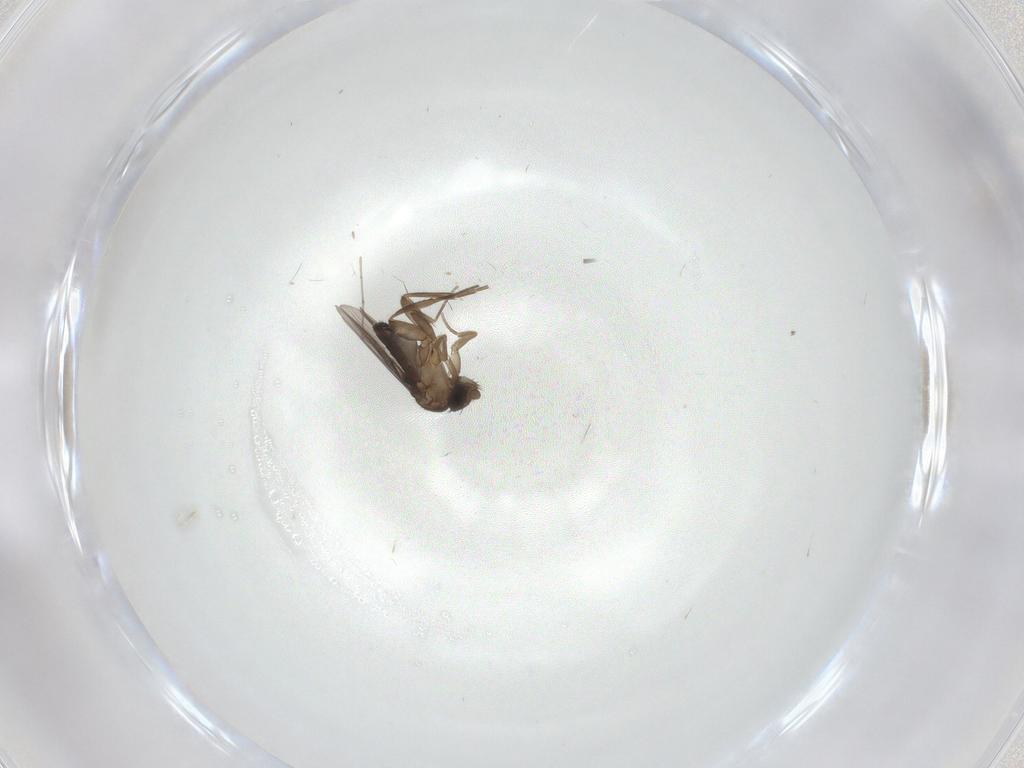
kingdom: Animalia
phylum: Arthropoda
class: Insecta
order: Diptera
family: Phoridae
